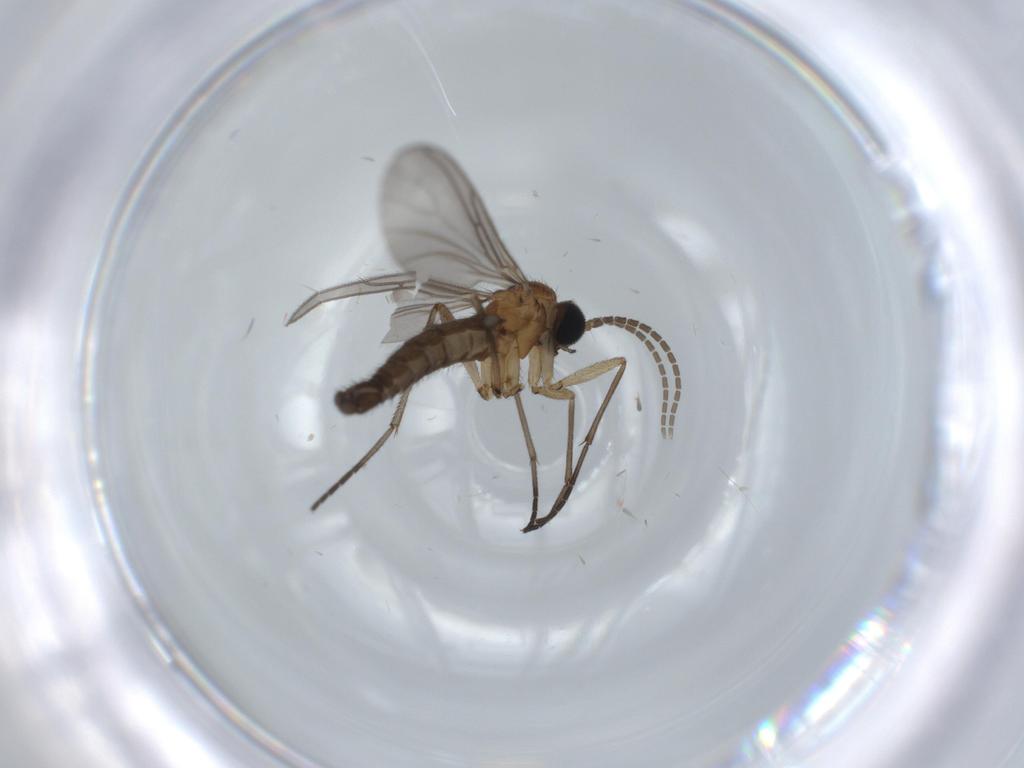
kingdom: Animalia
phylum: Arthropoda
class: Insecta
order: Diptera
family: Sciaridae
